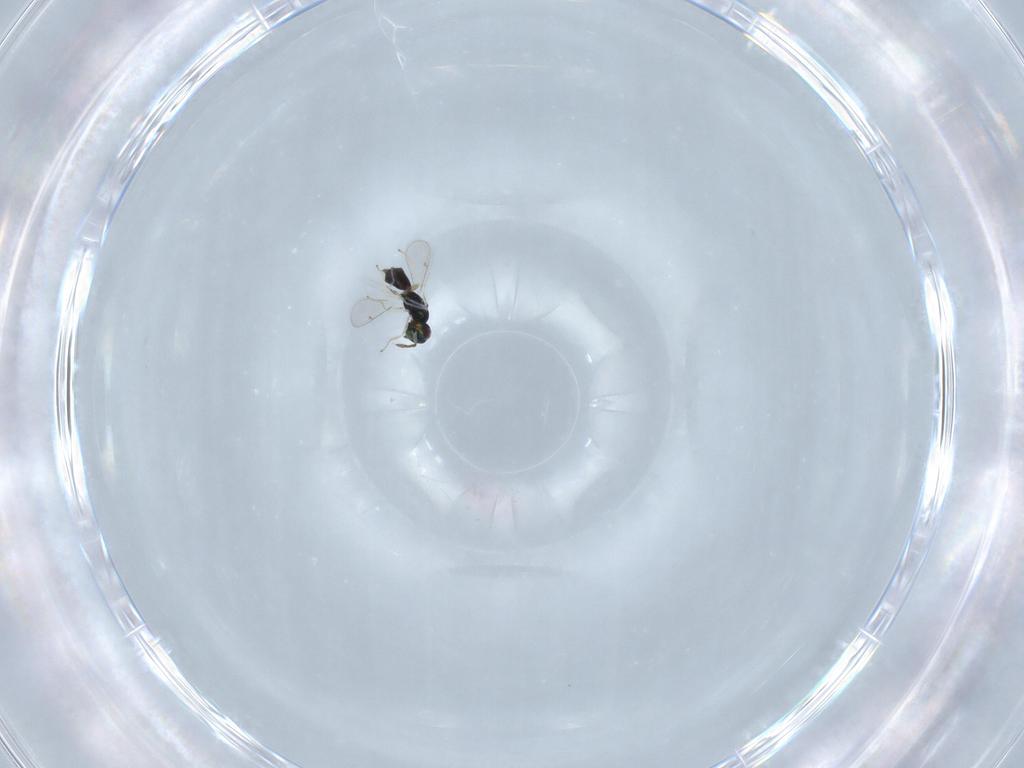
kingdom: Animalia
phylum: Arthropoda
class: Insecta
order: Hymenoptera
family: Eulophidae
